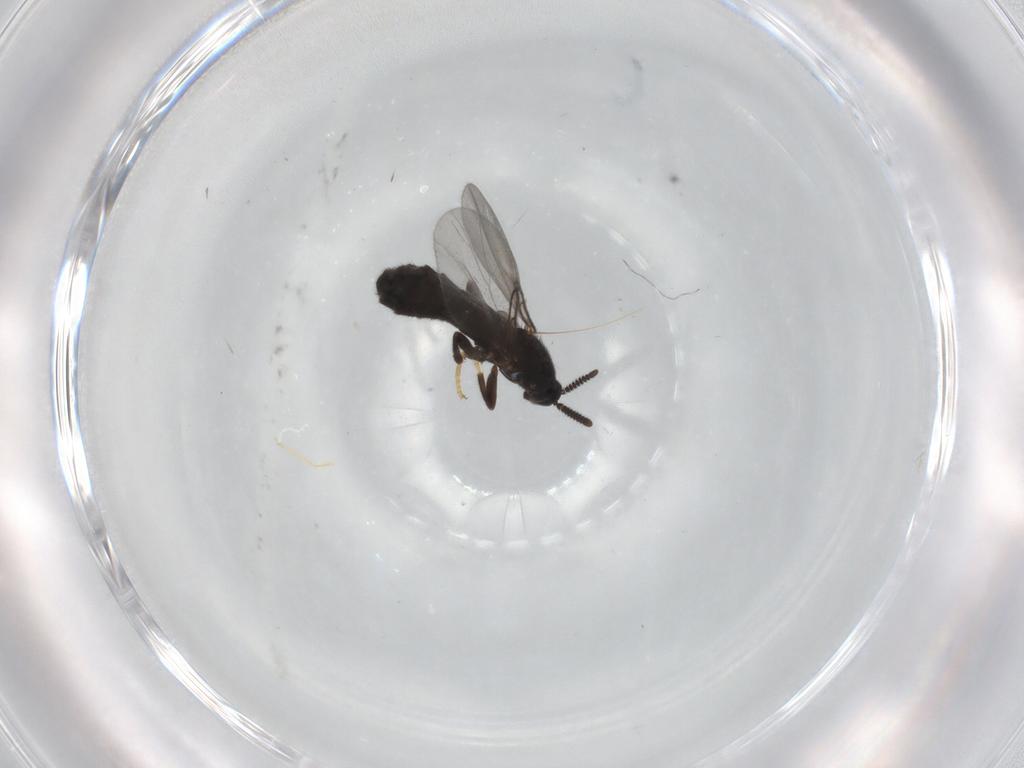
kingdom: Animalia
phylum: Arthropoda
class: Insecta
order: Diptera
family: Scatopsidae
